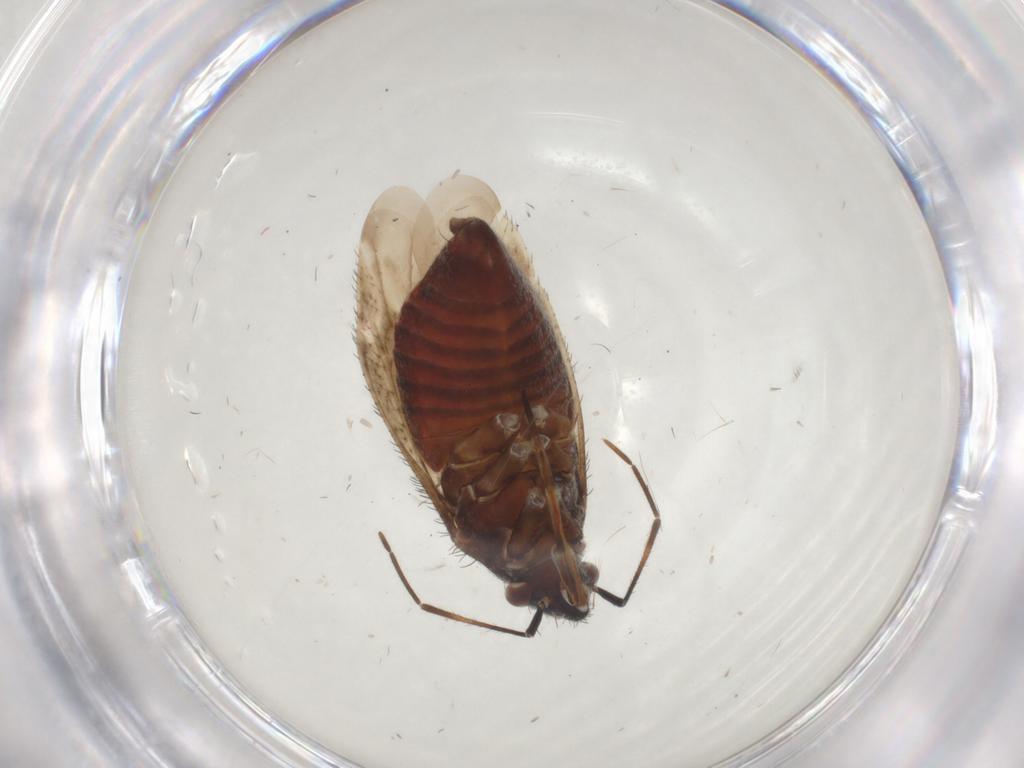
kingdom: Animalia
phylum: Arthropoda
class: Insecta
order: Hemiptera
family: Miridae
